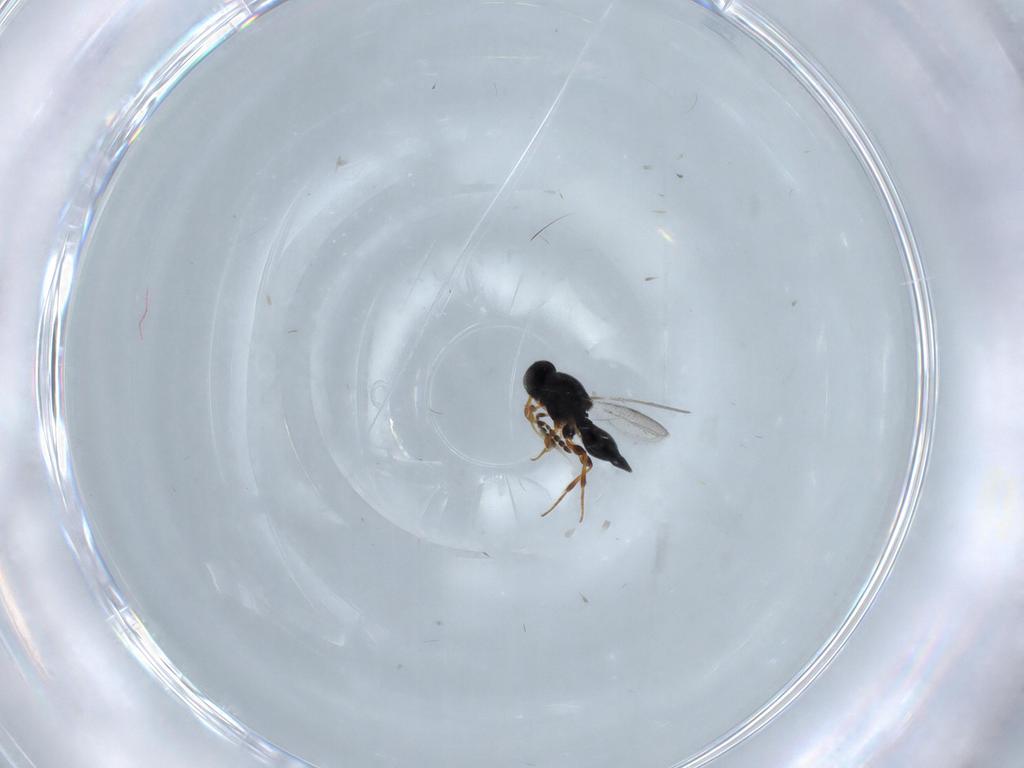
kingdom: Animalia
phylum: Arthropoda
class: Insecta
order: Hymenoptera
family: Platygastridae
